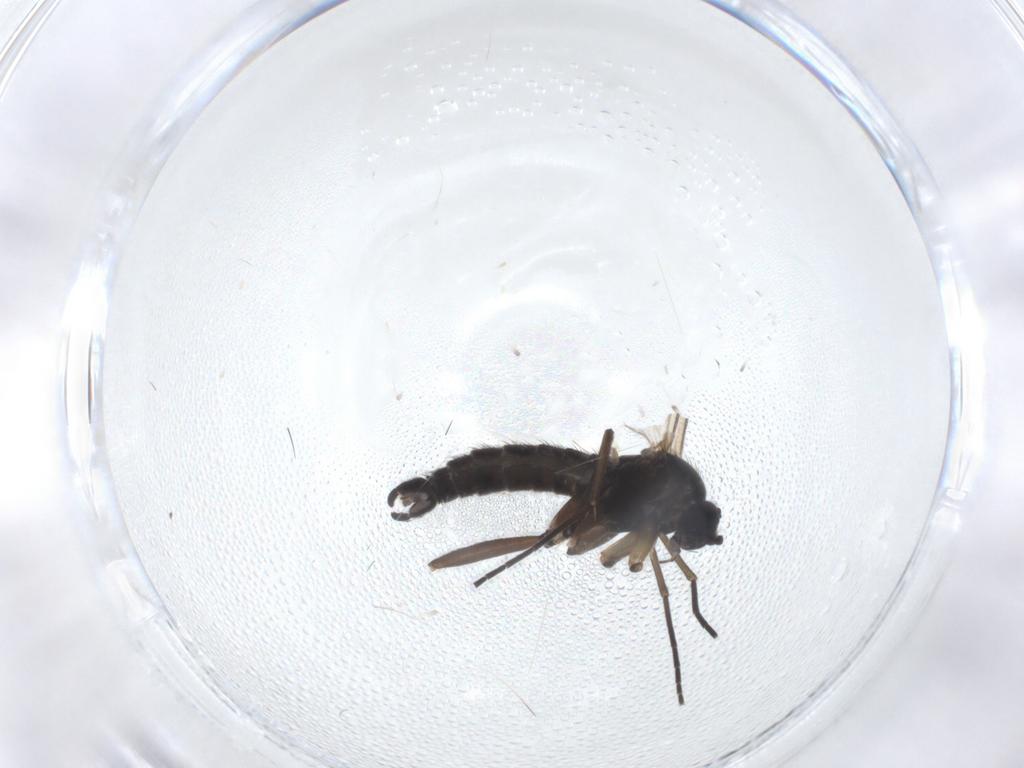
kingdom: Animalia
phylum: Arthropoda
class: Insecta
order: Diptera
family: Sciaridae
